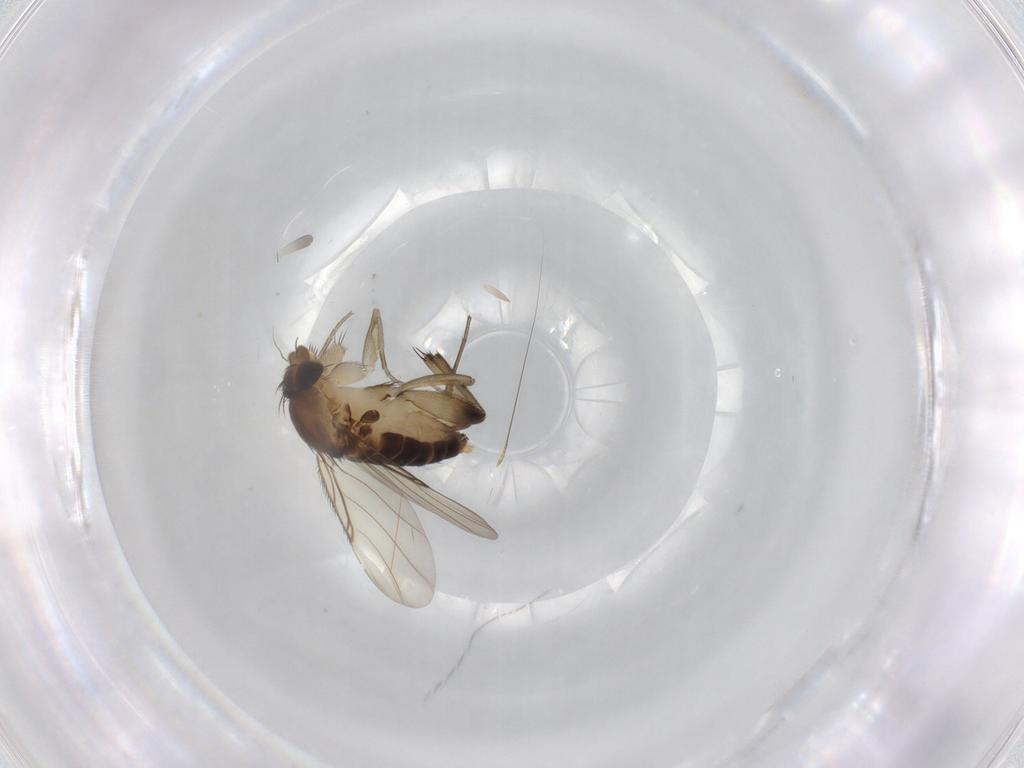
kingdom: Animalia
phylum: Arthropoda
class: Insecta
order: Diptera
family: Phoridae
